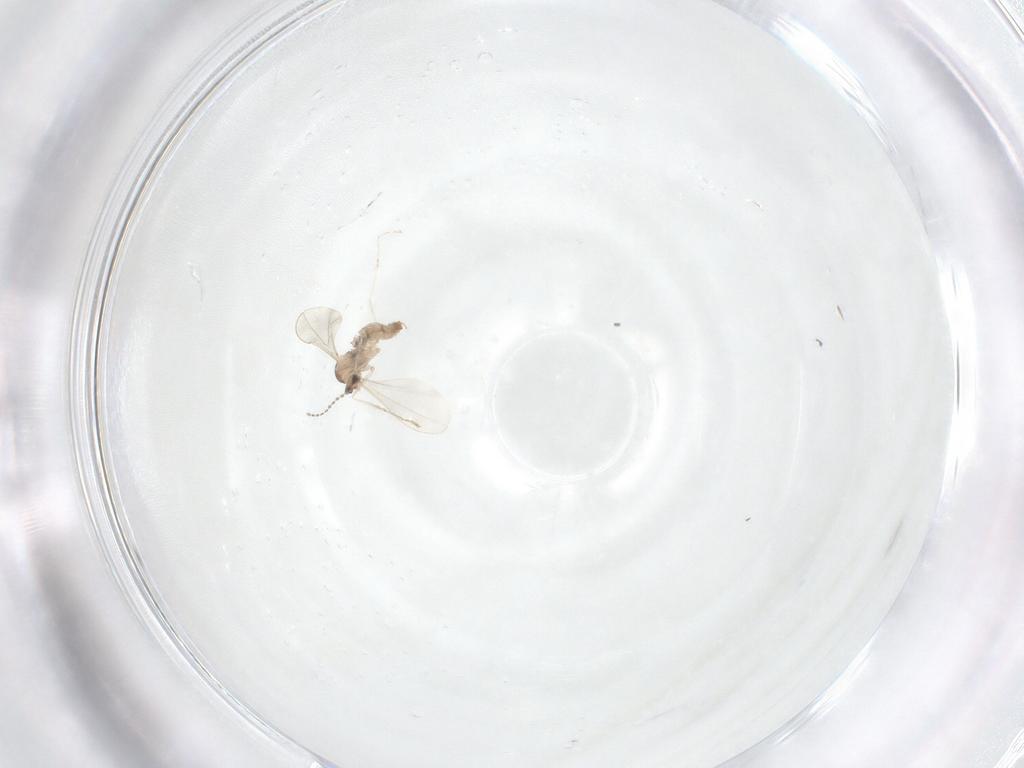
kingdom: Animalia
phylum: Arthropoda
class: Insecta
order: Diptera
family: Cecidomyiidae
